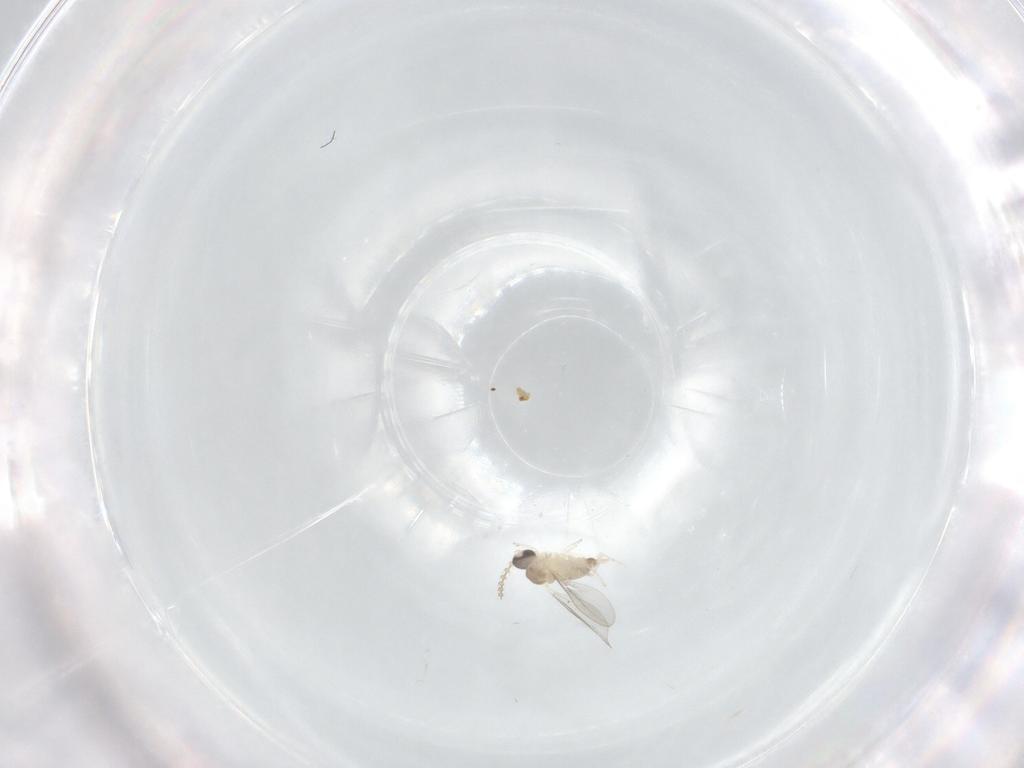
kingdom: Animalia
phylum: Arthropoda
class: Insecta
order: Diptera
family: Cecidomyiidae
